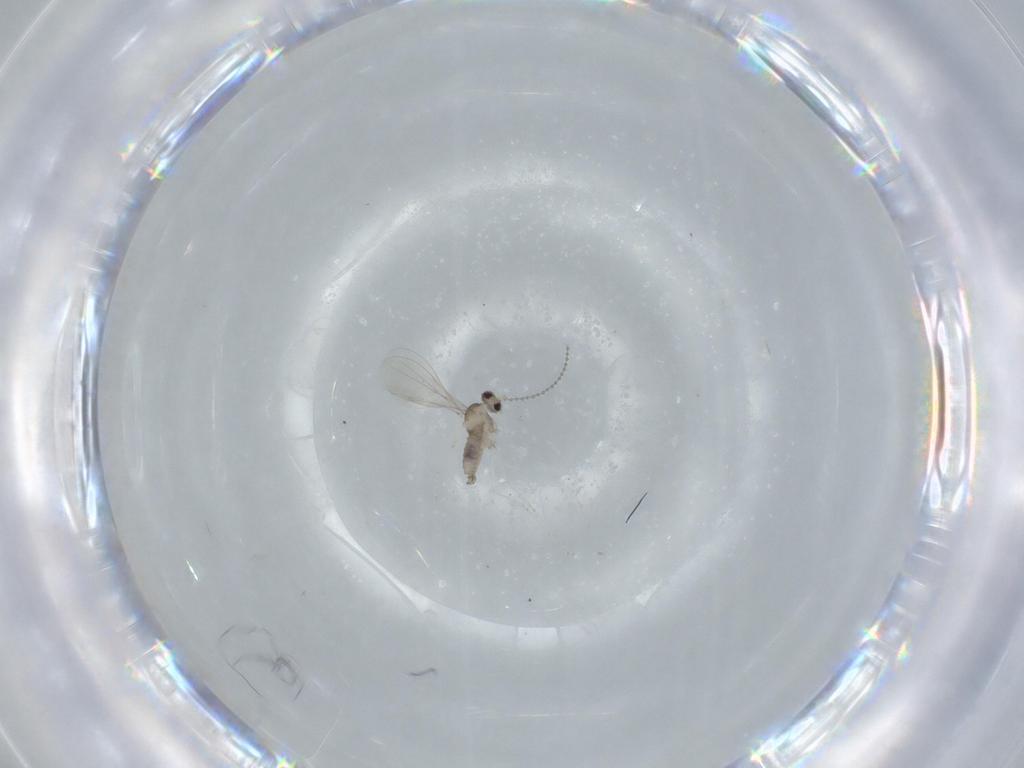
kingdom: Animalia
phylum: Arthropoda
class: Insecta
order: Diptera
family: Cecidomyiidae
